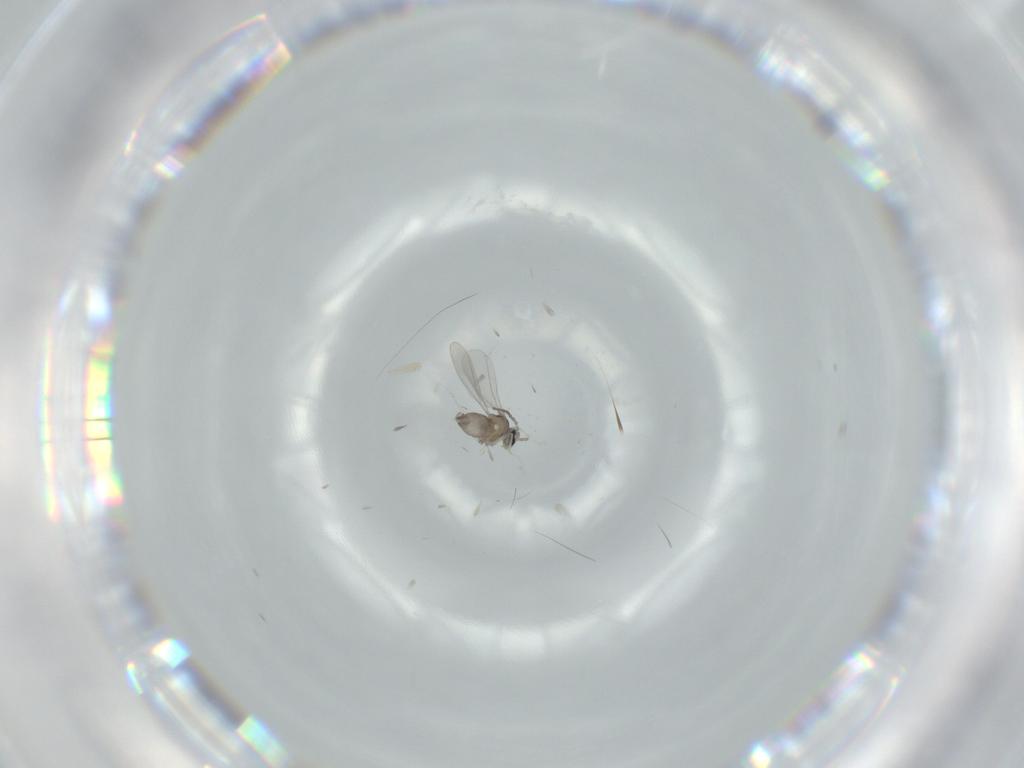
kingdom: Animalia
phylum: Arthropoda
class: Insecta
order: Diptera
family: Cecidomyiidae
